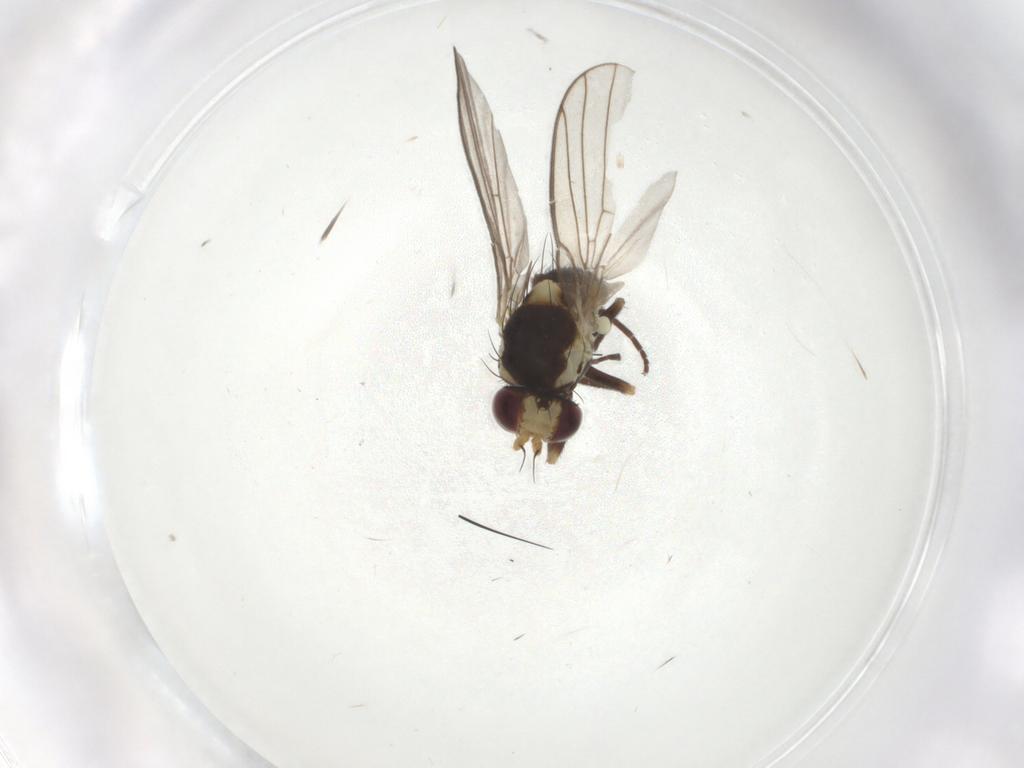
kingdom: Animalia
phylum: Arthropoda
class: Insecta
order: Diptera
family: Agromyzidae
